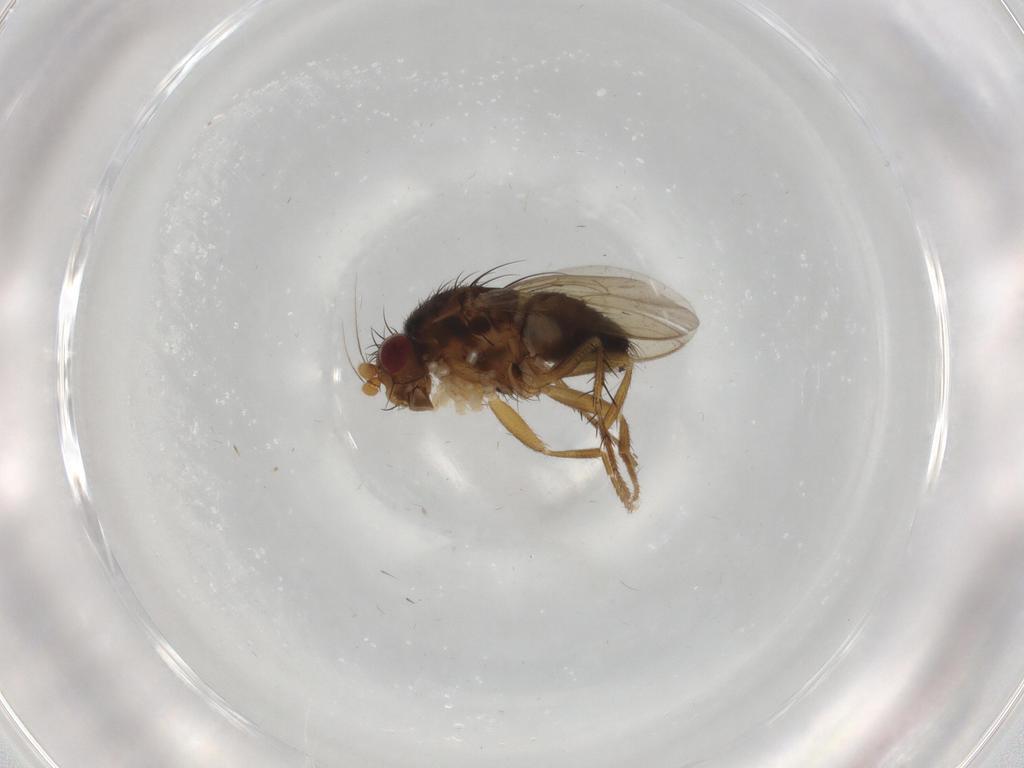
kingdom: Animalia
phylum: Arthropoda
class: Insecta
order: Diptera
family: Sphaeroceridae
